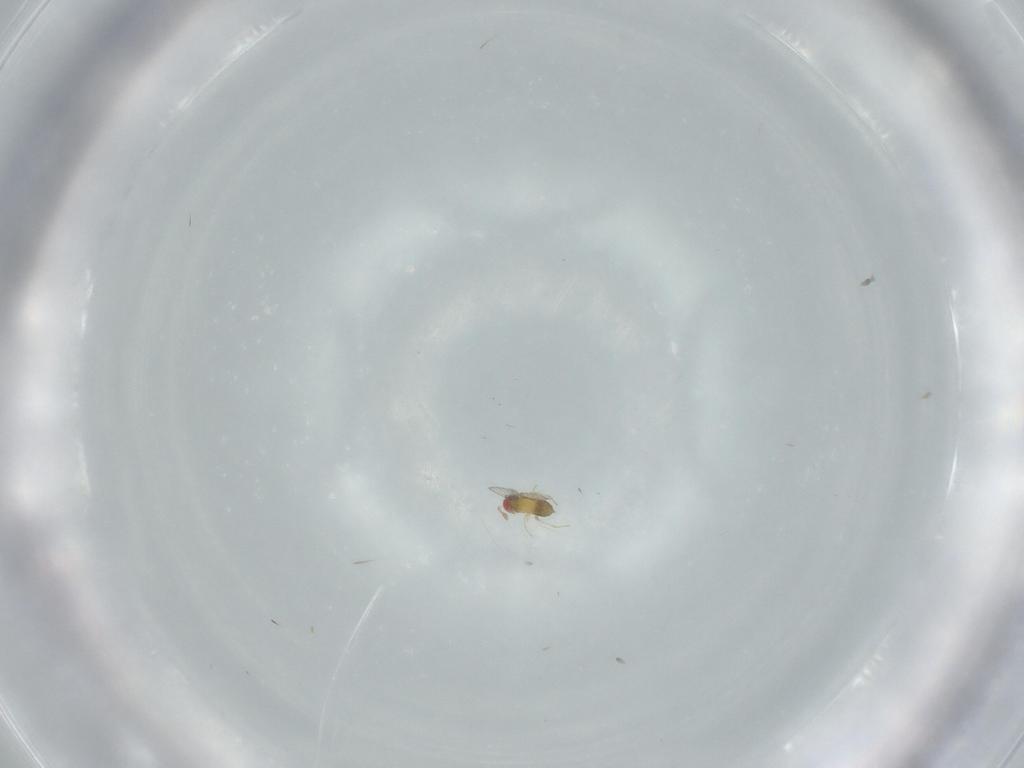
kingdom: Animalia
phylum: Arthropoda
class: Insecta
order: Hymenoptera
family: Trichogrammatidae
